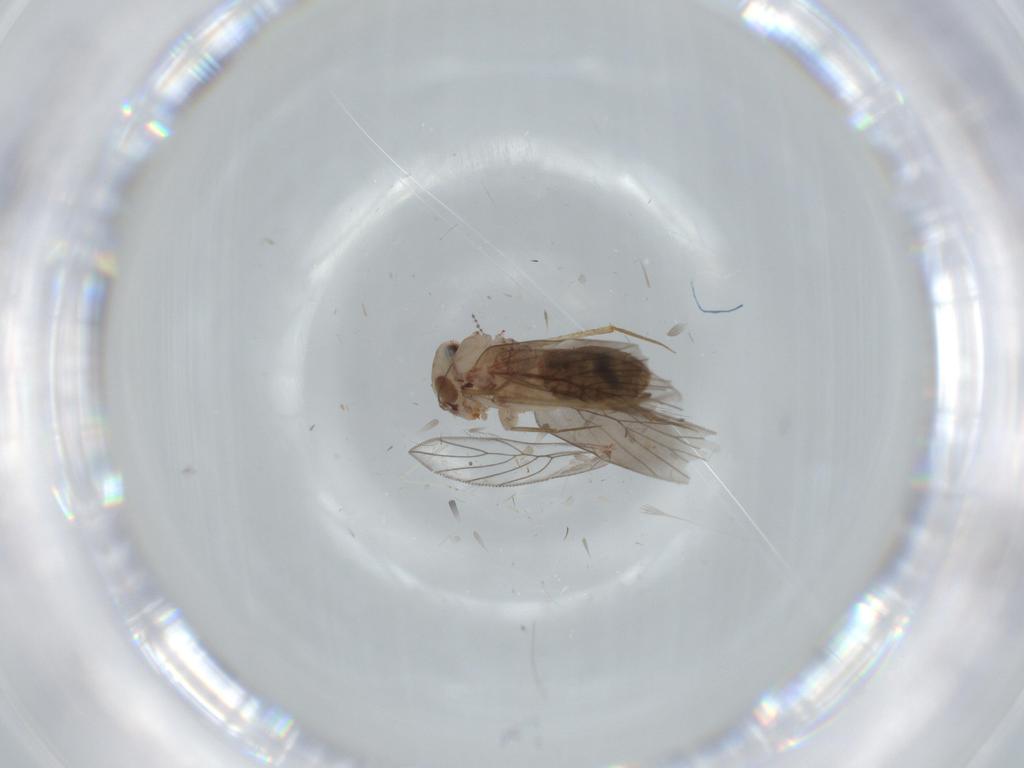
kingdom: Animalia
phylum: Arthropoda
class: Insecta
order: Psocodea
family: Lepidopsocidae
